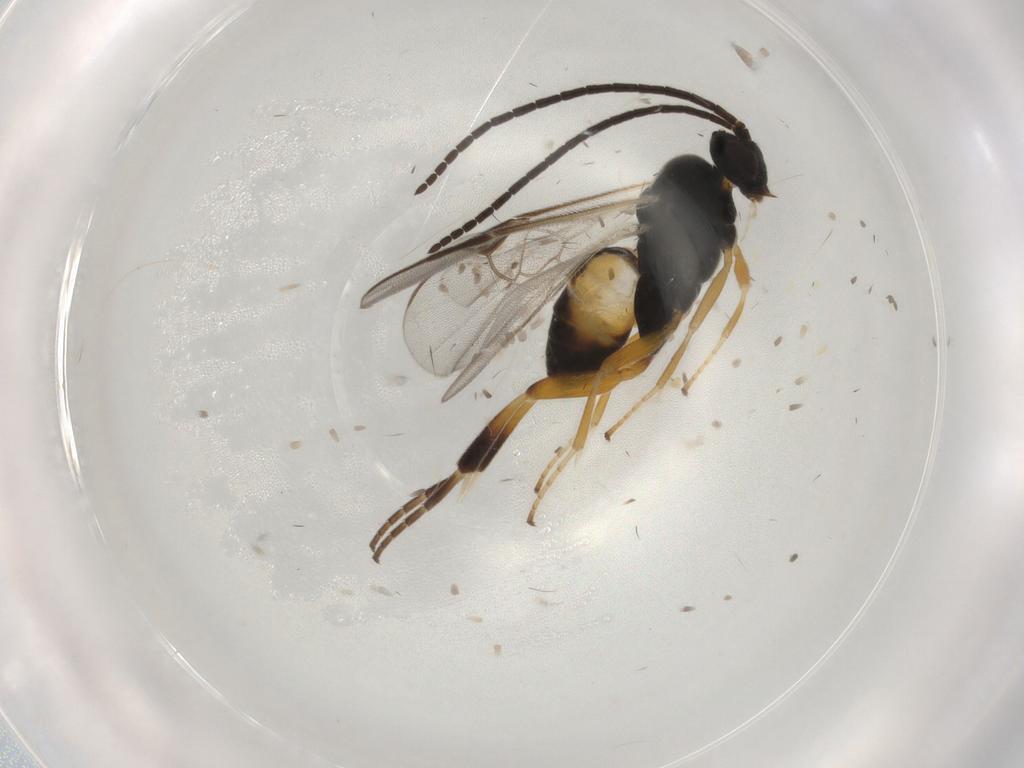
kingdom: Animalia
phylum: Arthropoda
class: Insecta
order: Hymenoptera
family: Braconidae
